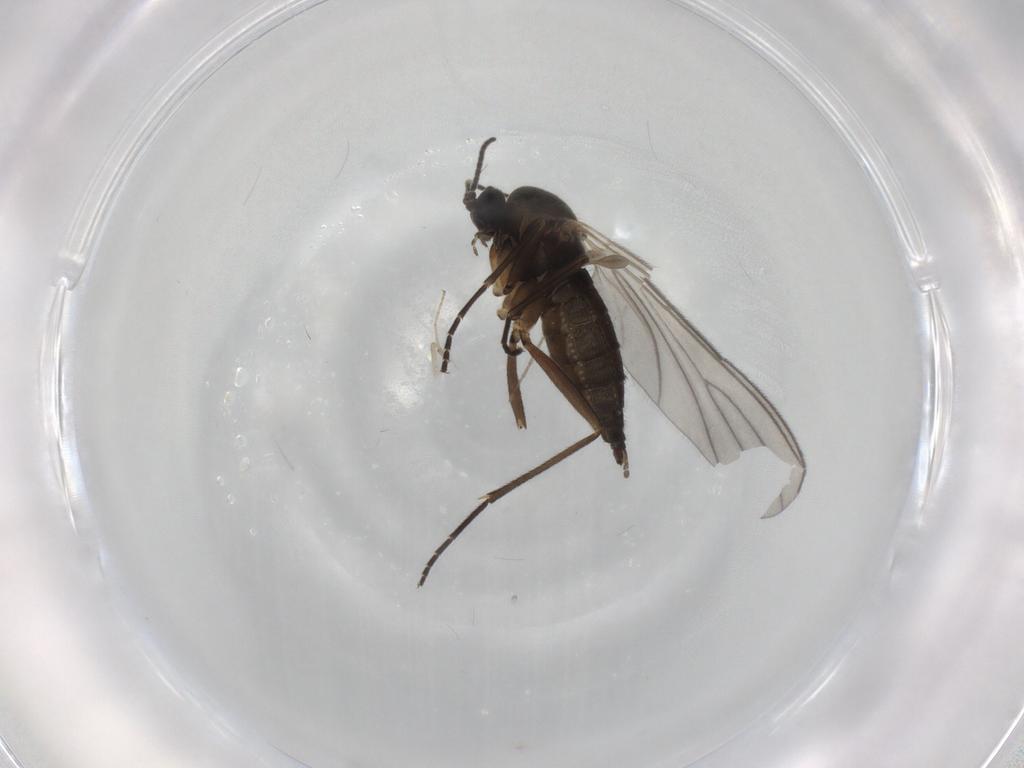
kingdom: Animalia
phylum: Arthropoda
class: Insecta
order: Diptera
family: Sciaridae
